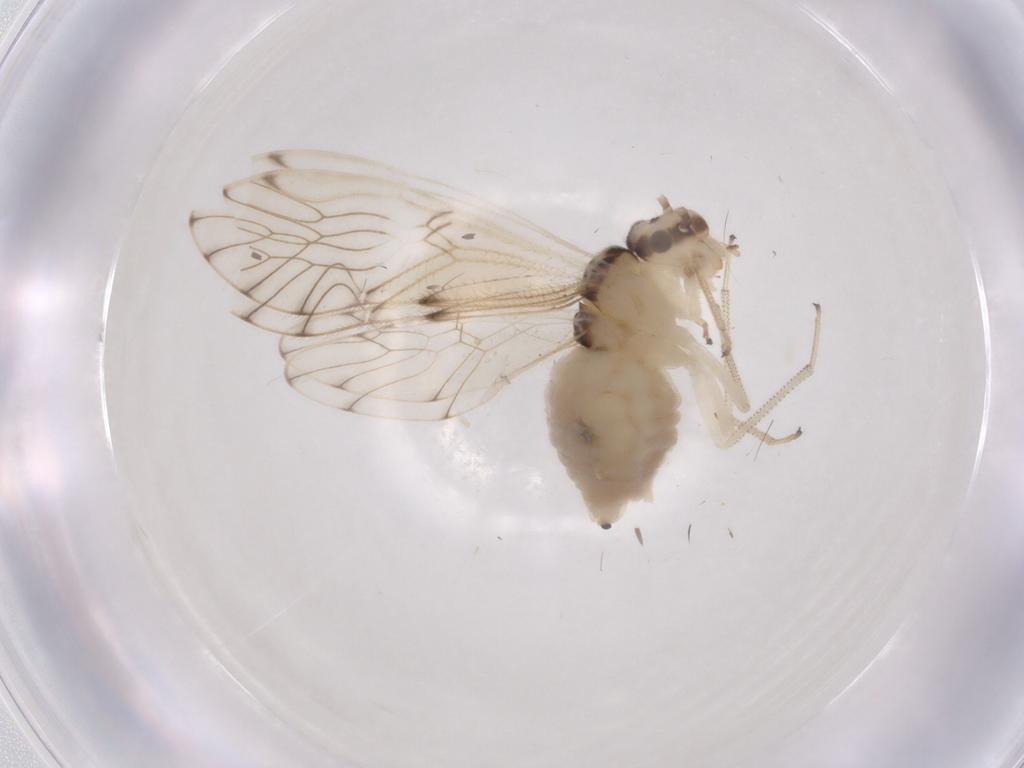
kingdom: Animalia
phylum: Arthropoda
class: Insecta
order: Psocodea
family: Philotarsidae
